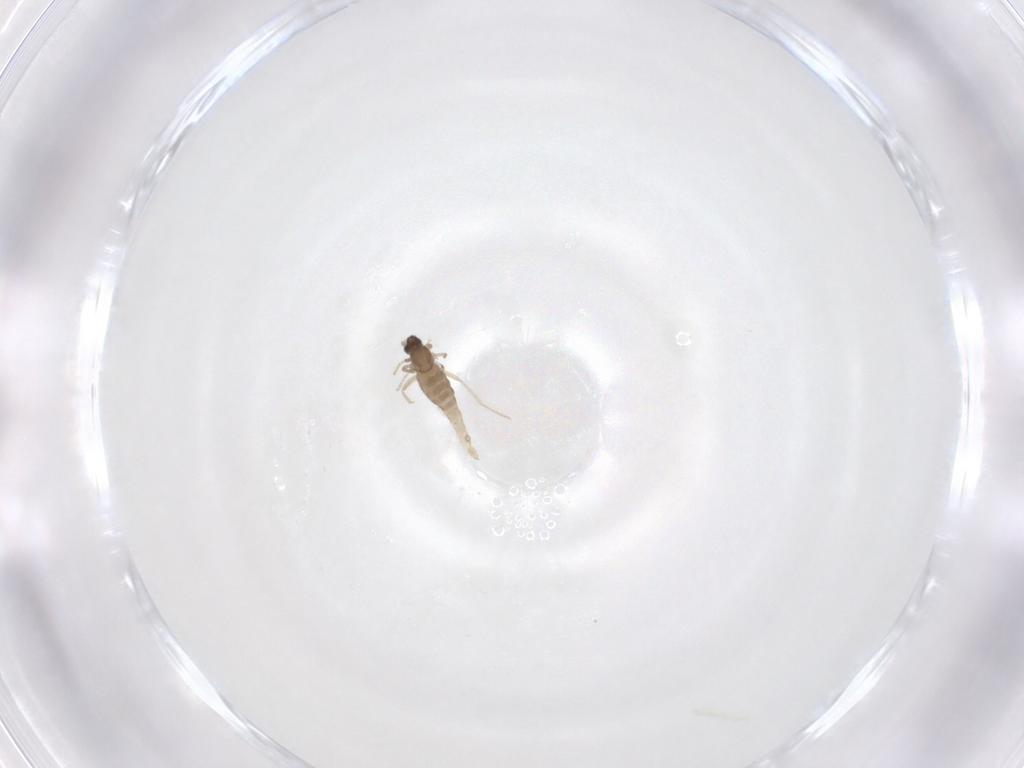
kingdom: Animalia
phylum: Arthropoda
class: Insecta
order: Diptera
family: Cecidomyiidae
